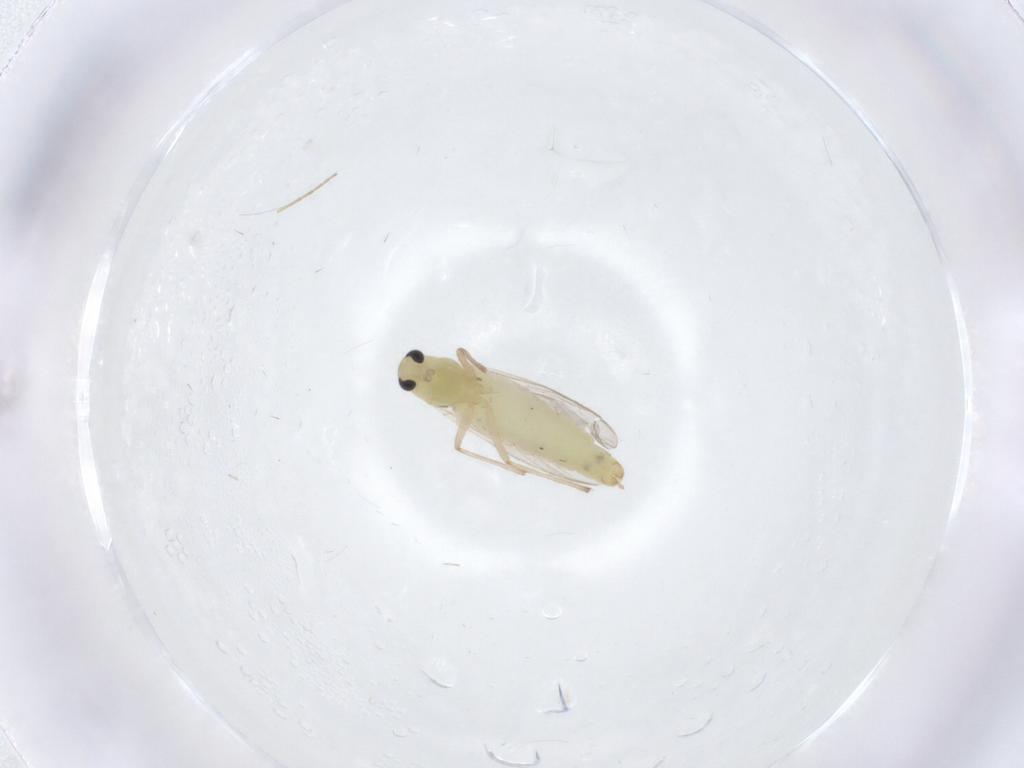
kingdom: Animalia
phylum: Arthropoda
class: Insecta
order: Diptera
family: Chironomidae
